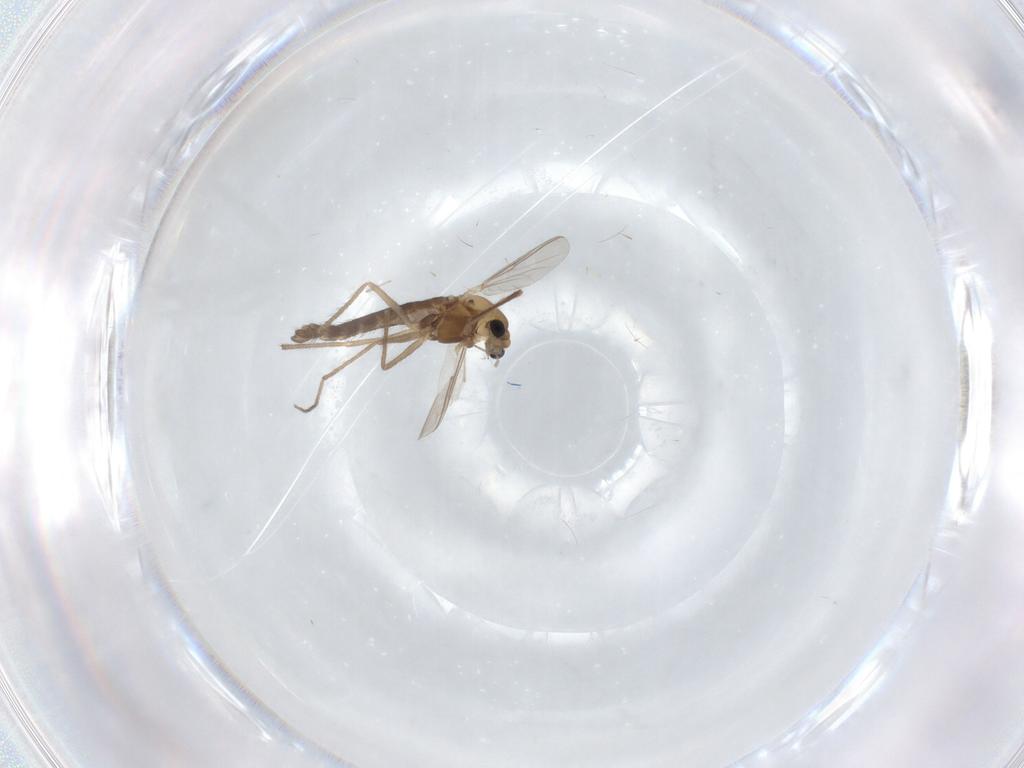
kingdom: Animalia
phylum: Arthropoda
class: Insecta
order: Diptera
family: Chironomidae
